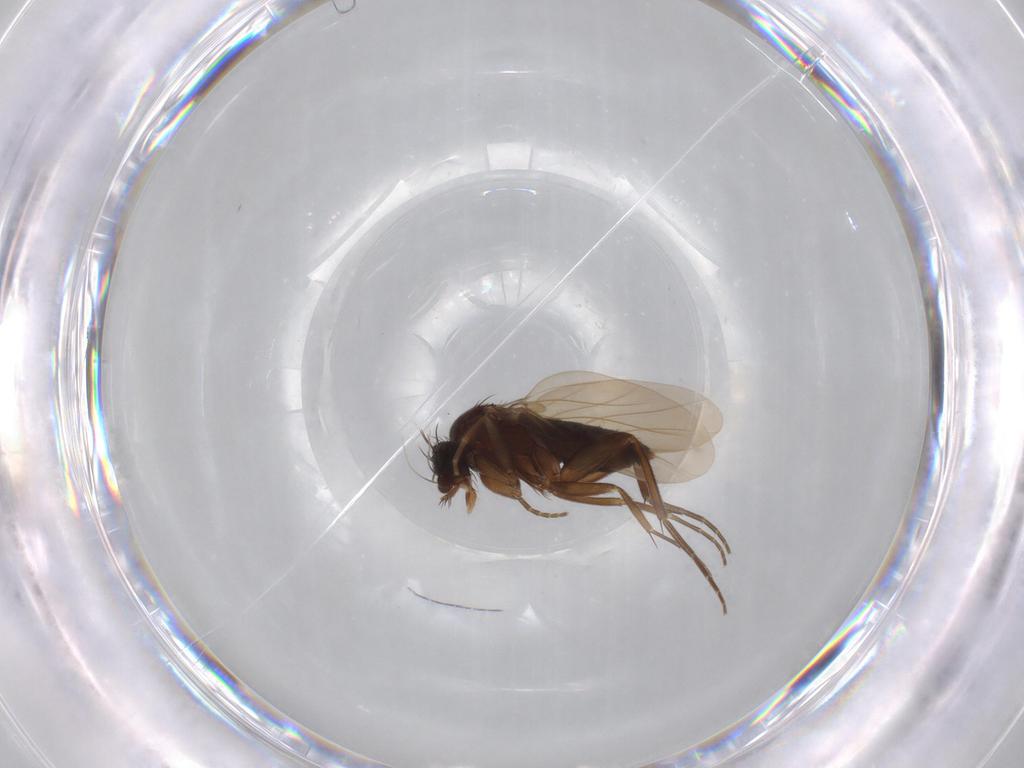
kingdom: Animalia
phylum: Arthropoda
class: Insecta
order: Diptera
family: Phoridae
